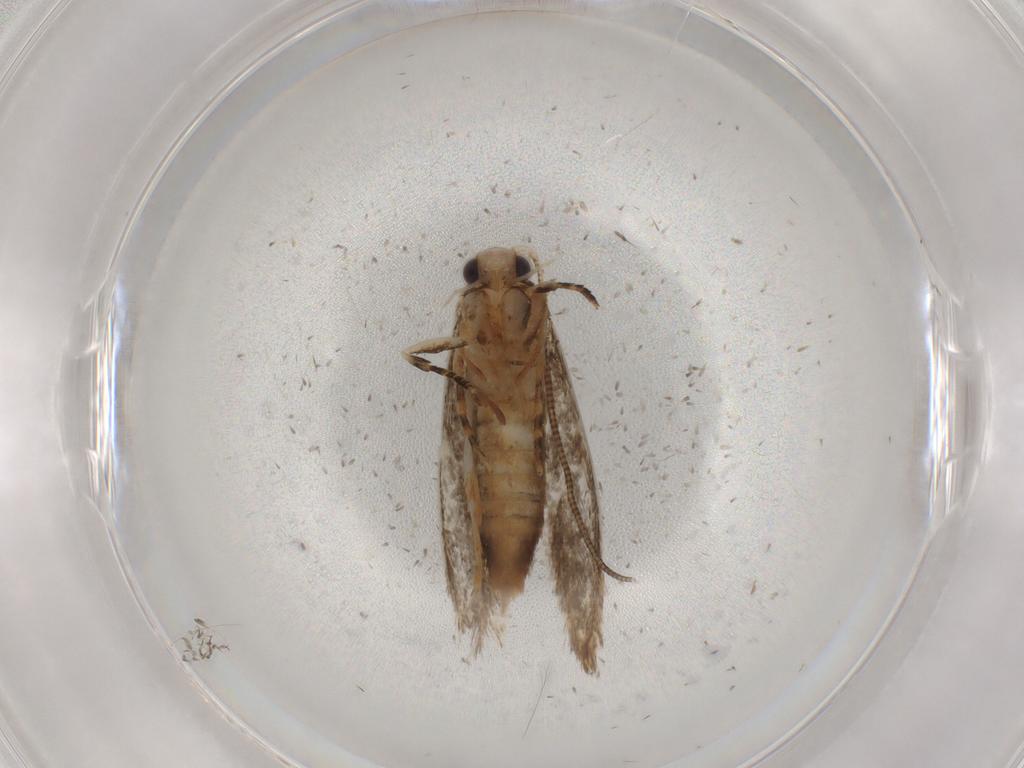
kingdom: Animalia
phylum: Arthropoda
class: Insecta
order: Lepidoptera
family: Tineidae
